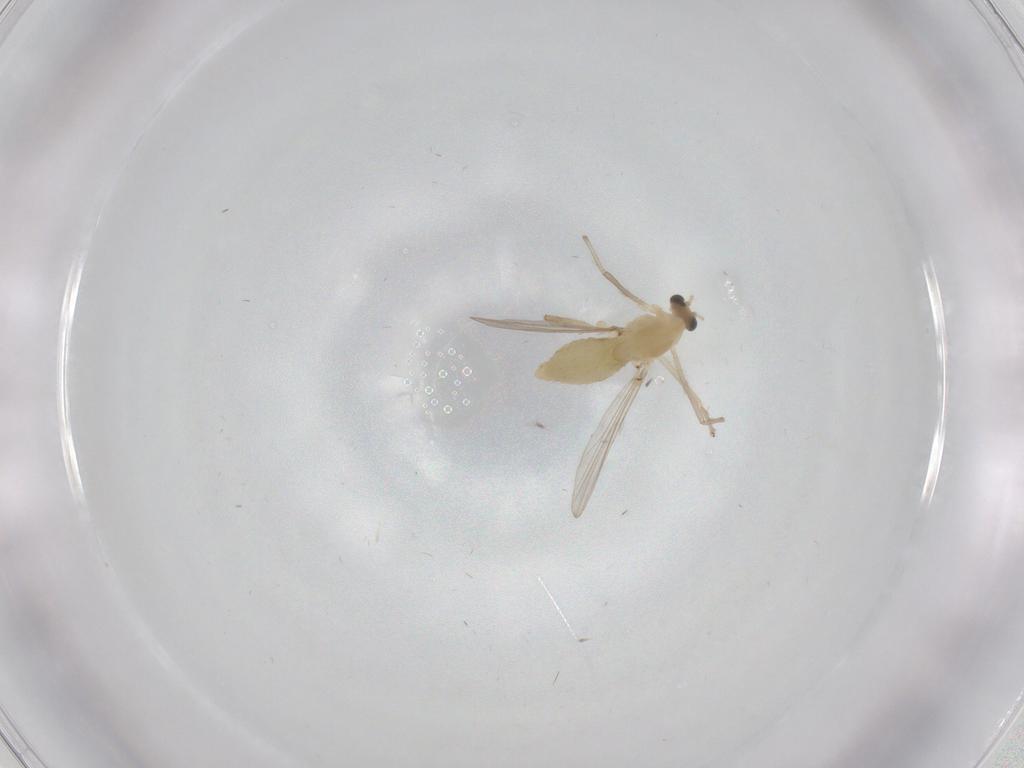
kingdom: Animalia
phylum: Arthropoda
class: Insecta
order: Diptera
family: Chironomidae
